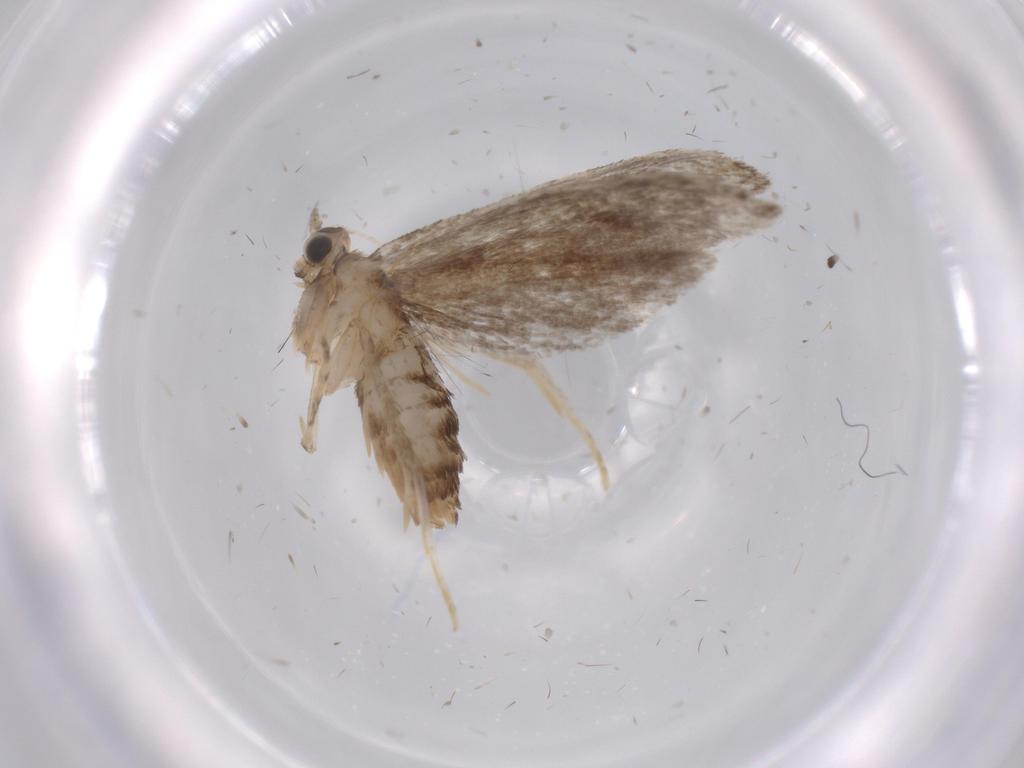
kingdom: Animalia
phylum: Arthropoda
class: Insecta
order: Lepidoptera
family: Tineidae
